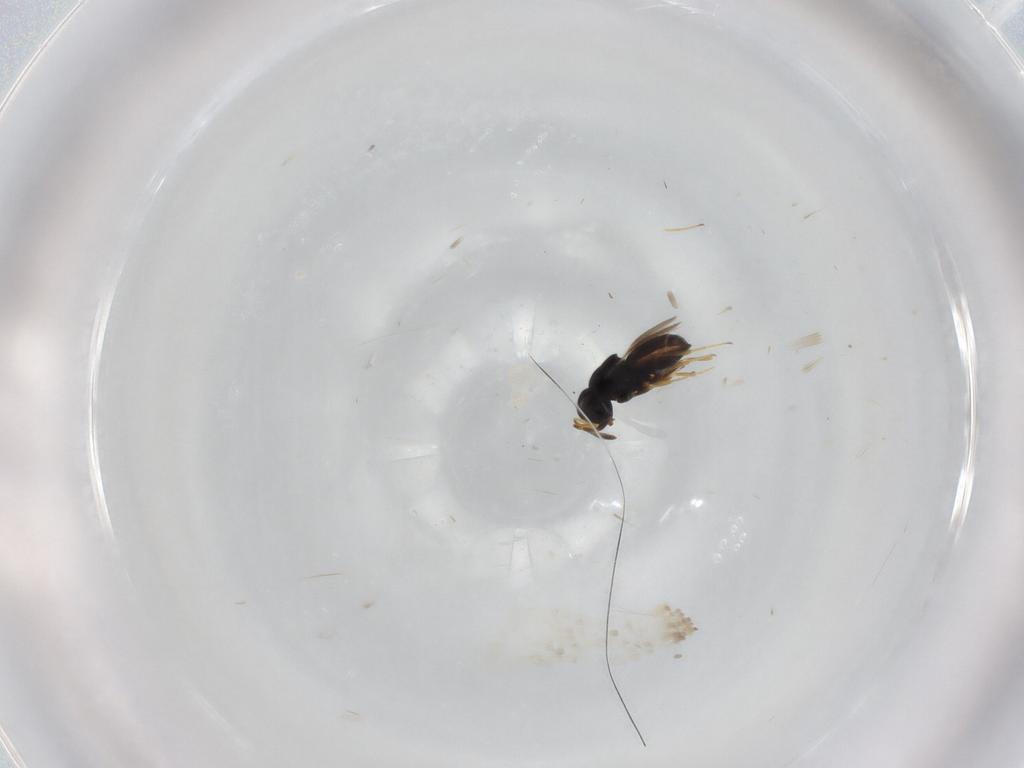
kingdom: Animalia
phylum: Arthropoda
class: Insecta
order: Hymenoptera
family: Scelionidae
